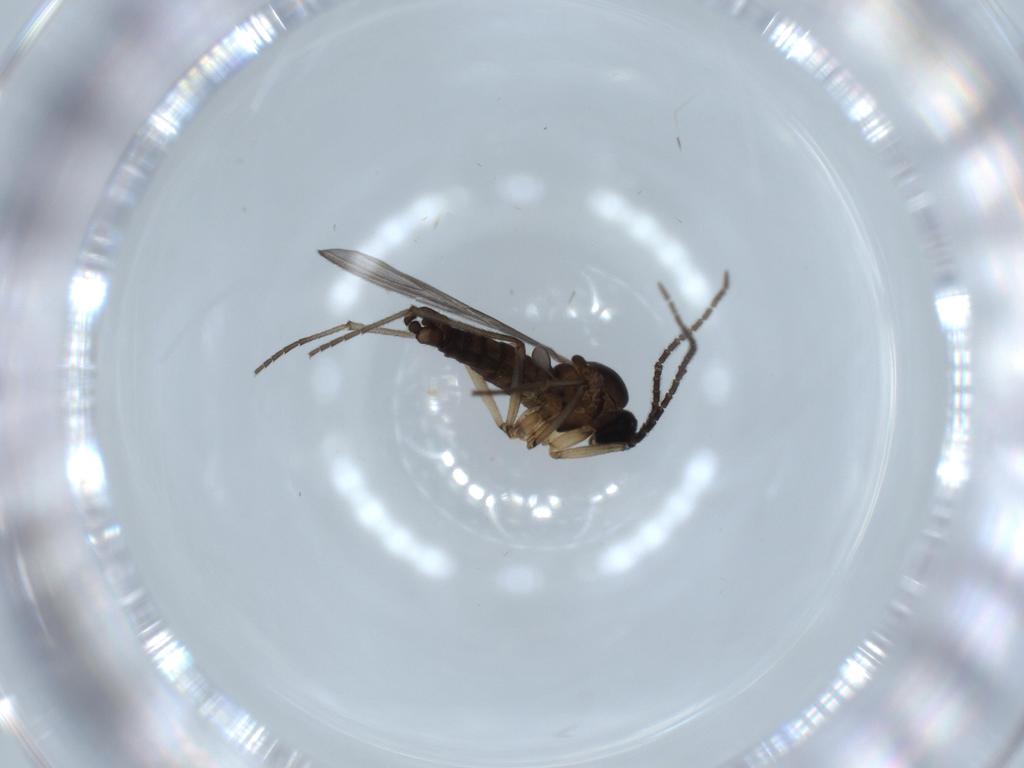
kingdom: Animalia
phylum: Arthropoda
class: Insecta
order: Diptera
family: Sciaridae
